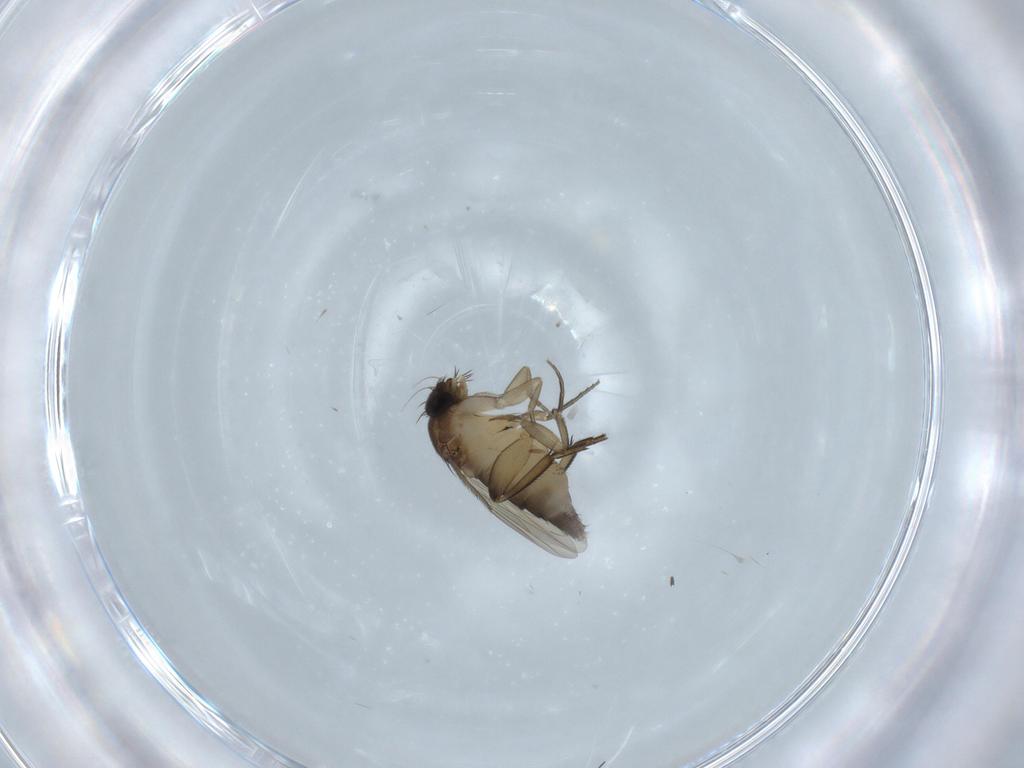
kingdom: Animalia
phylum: Arthropoda
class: Insecta
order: Diptera
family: Phoridae
